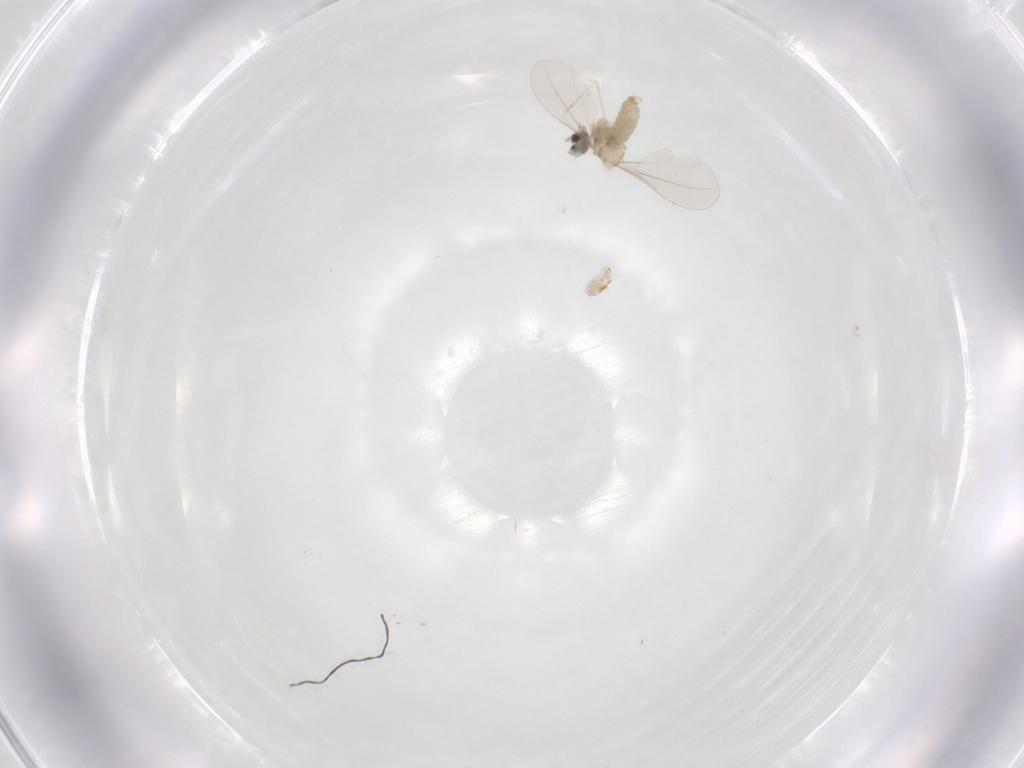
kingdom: Animalia
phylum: Arthropoda
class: Insecta
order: Diptera
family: Cecidomyiidae
